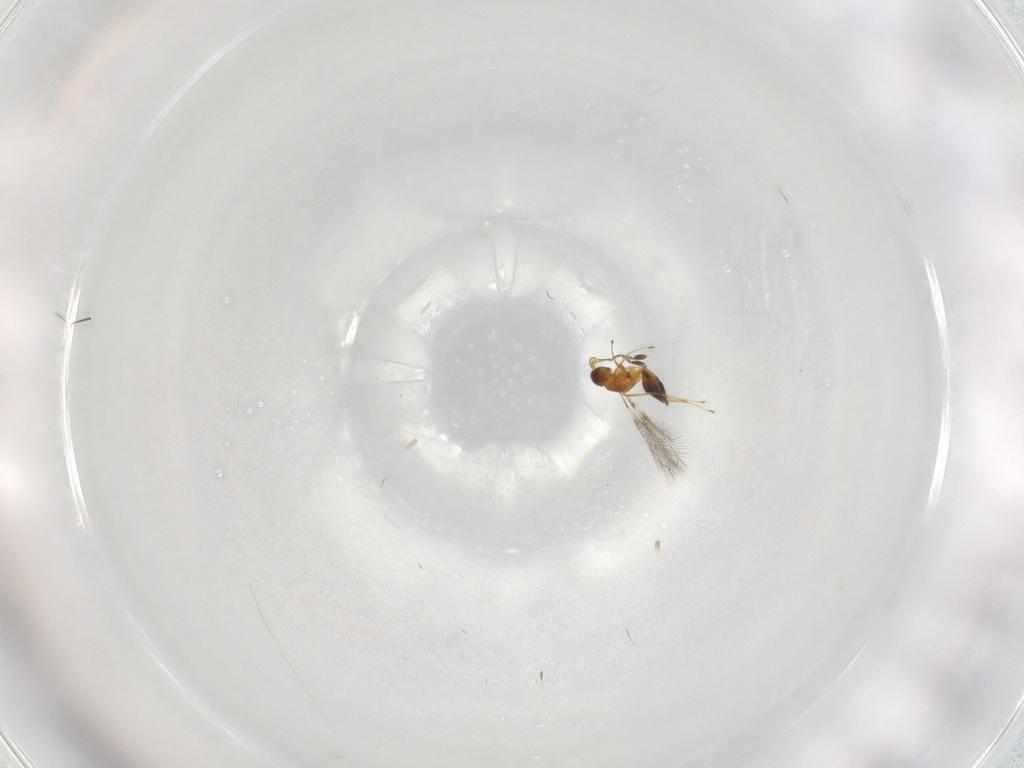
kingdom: Animalia
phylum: Arthropoda
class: Insecta
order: Hymenoptera
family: Mymaridae
